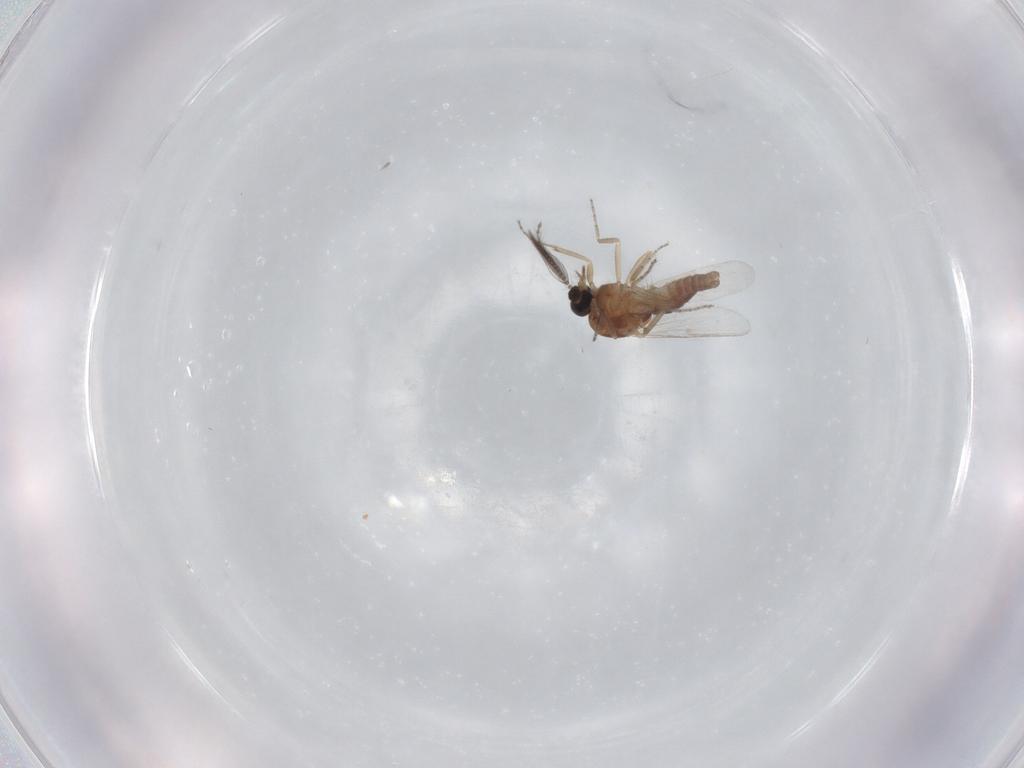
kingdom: Animalia
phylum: Arthropoda
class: Insecta
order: Diptera
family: Ceratopogonidae
